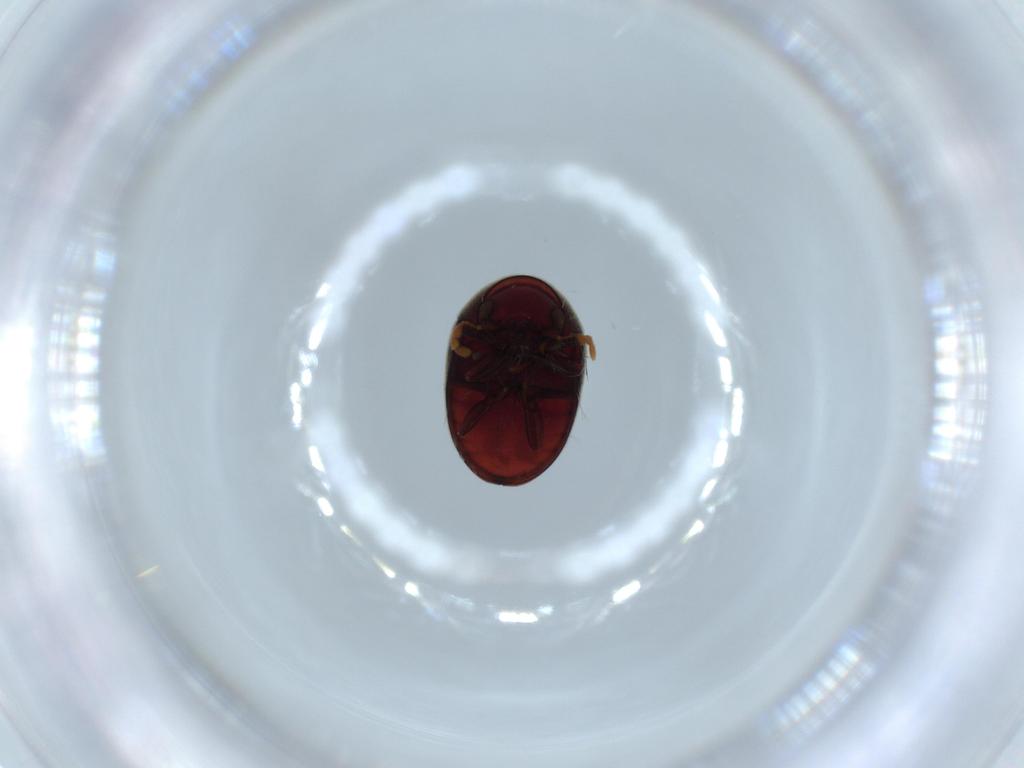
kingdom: Animalia
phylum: Arthropoda
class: Insecta
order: Coleoptera
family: Ptinidae
